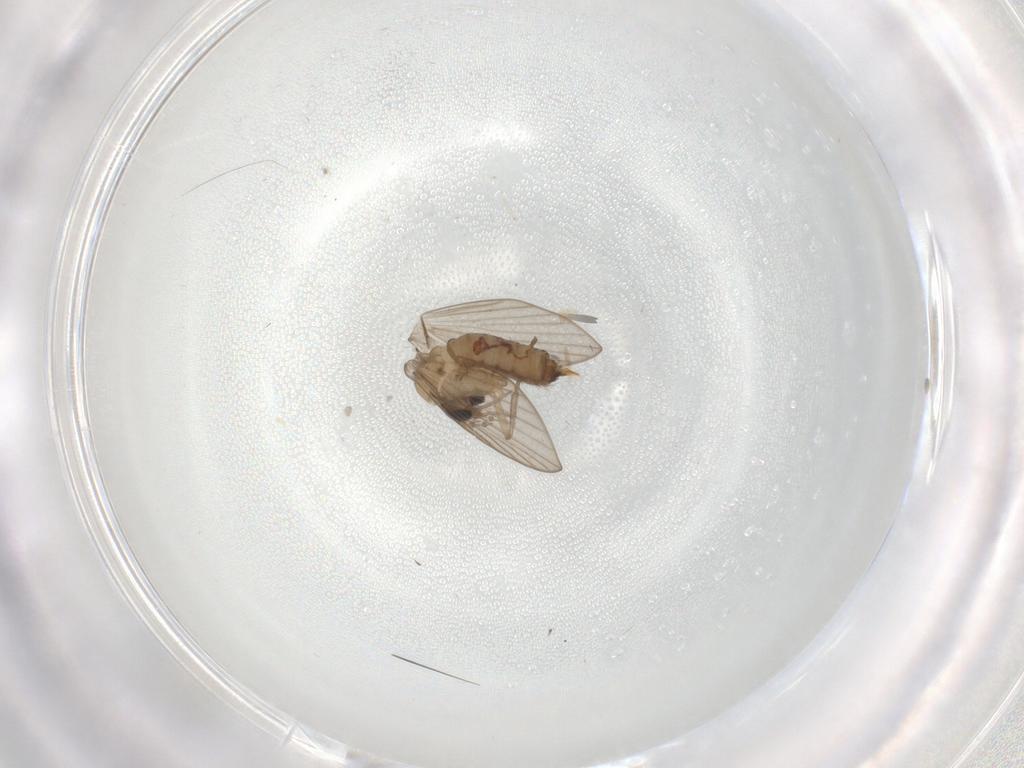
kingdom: Animalia
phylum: Arthropoda
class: Insecta
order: Diptera
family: Psychodidae
